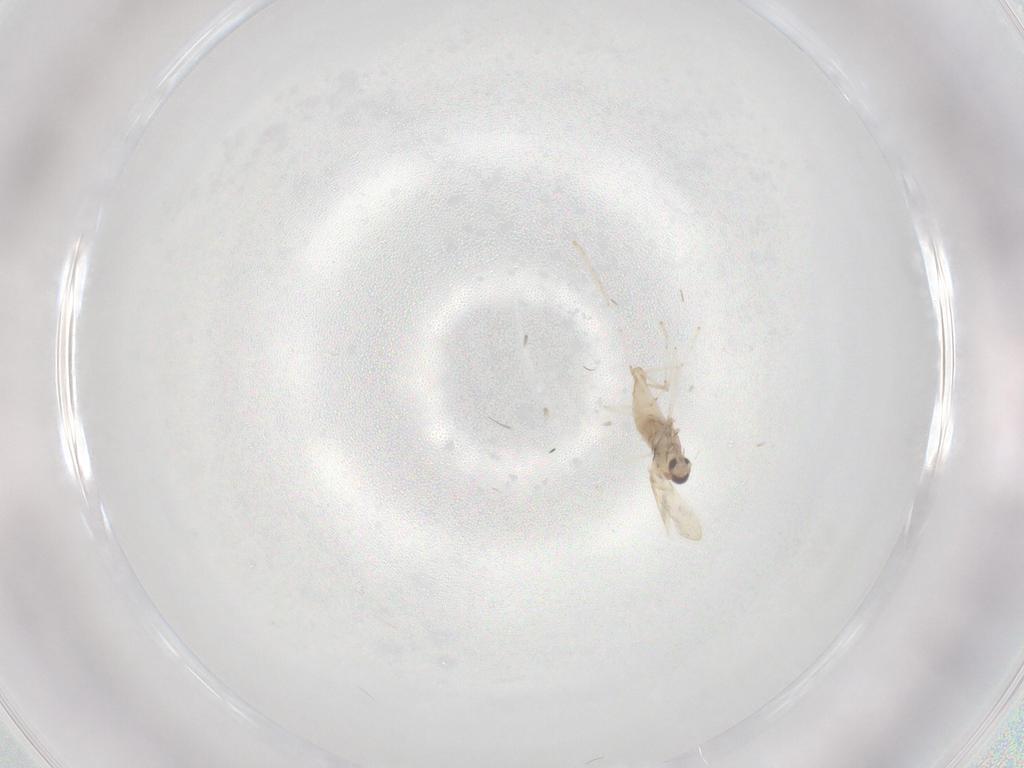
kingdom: Animalia
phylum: Arthropoda
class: Insecta
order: Diptera
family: Cecidomyiidae
